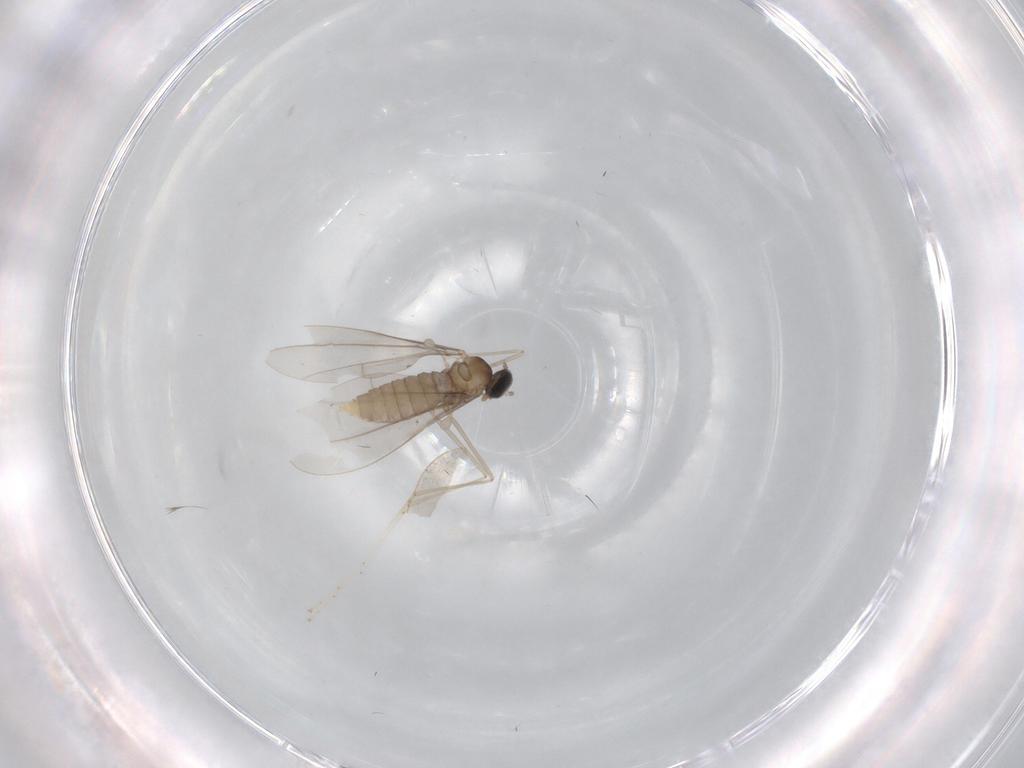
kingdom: Animalia
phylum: Arthropoda
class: Insecta
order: Diptera
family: Cecidomyiidae
